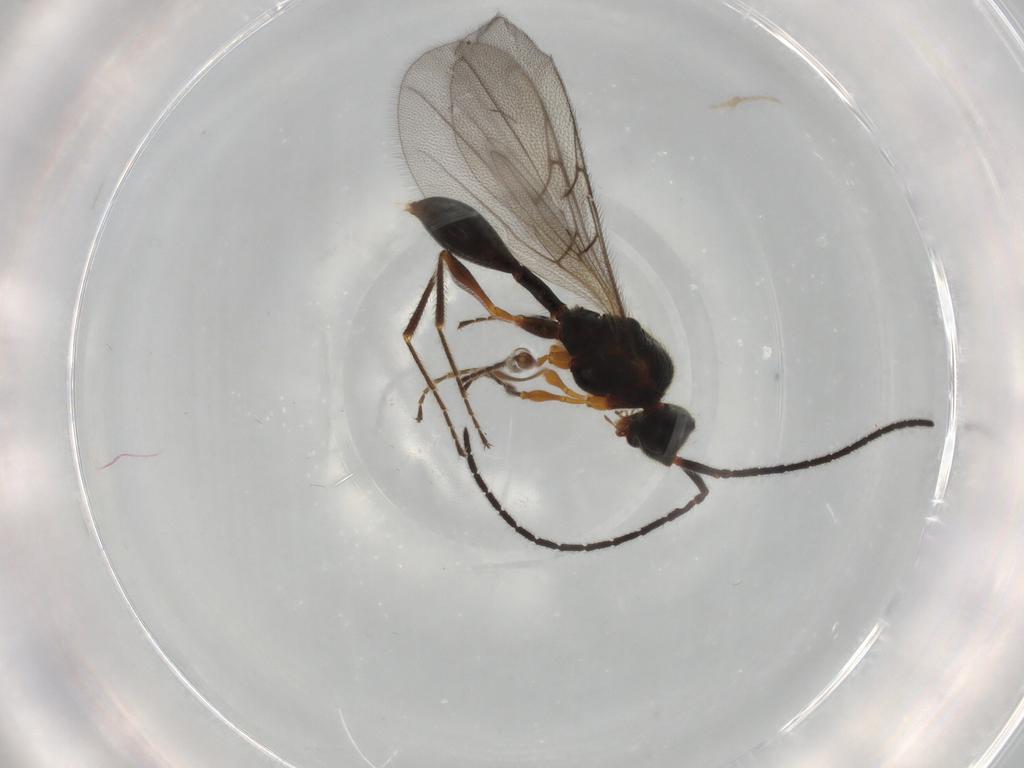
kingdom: Animalia
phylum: Arthropoda
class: Insecta
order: Hymenoptera
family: Diapriidae
